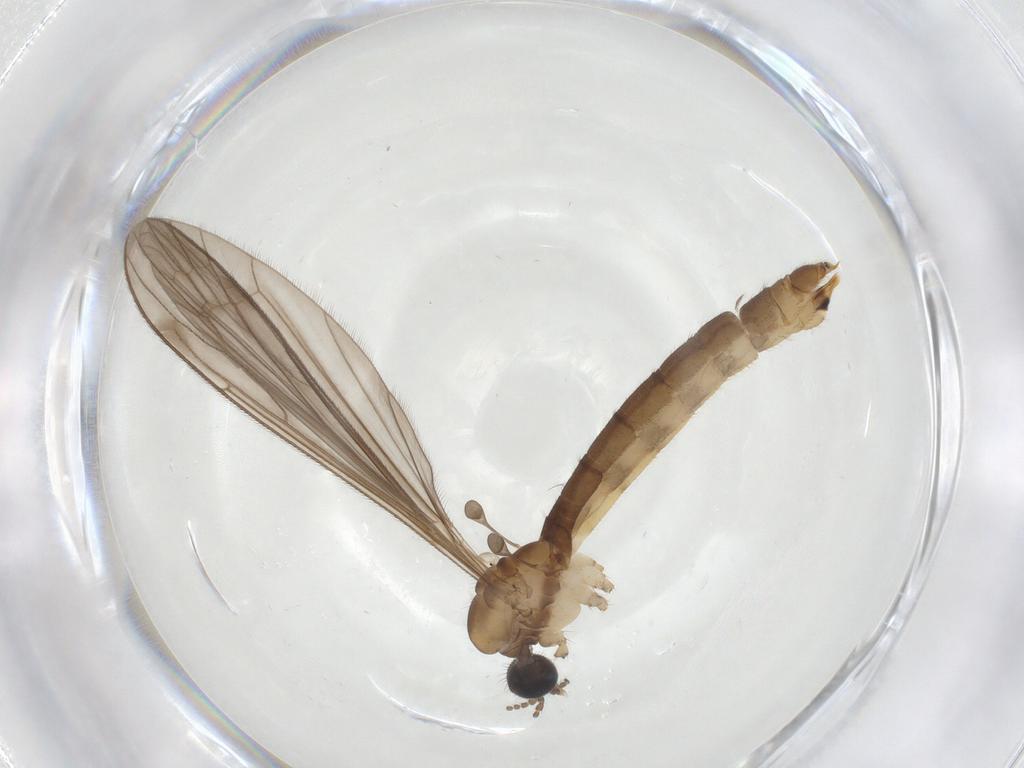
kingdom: Animalia
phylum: Arthropoda
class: Insecta
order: Diptera
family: Limoniidae
